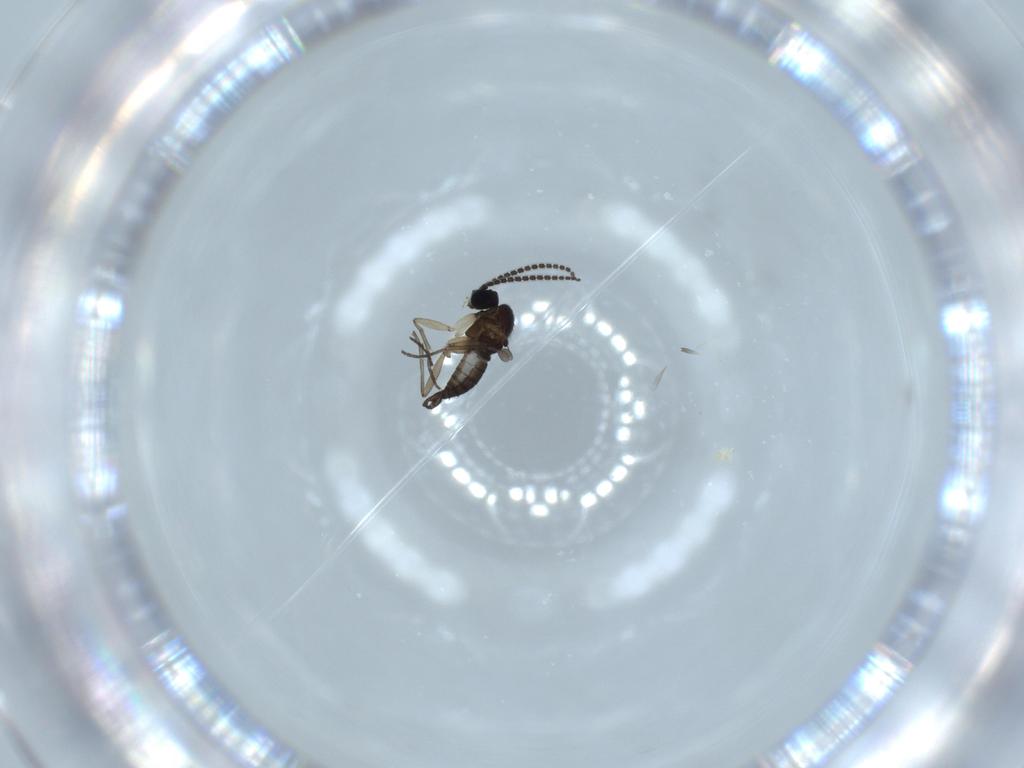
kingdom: Animalia
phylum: Arthropoda
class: Insecta
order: Diptera
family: Sciaridae
